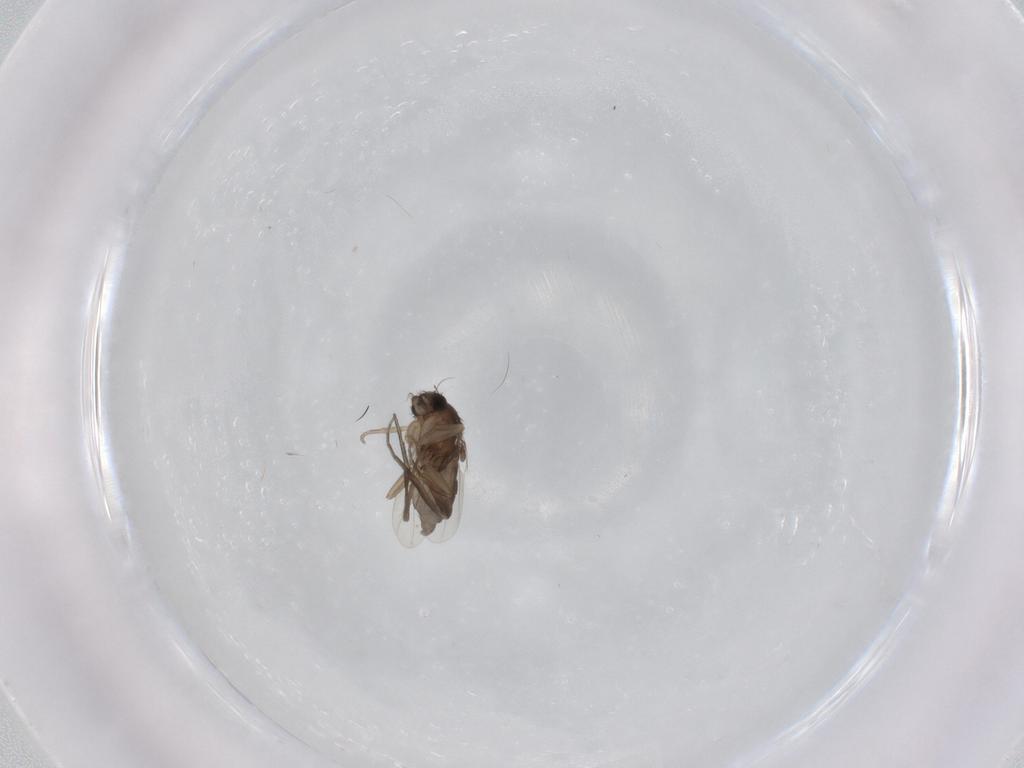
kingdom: Animalia
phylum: Arthropoda
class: Insecta
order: Diptera
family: Phoridae
